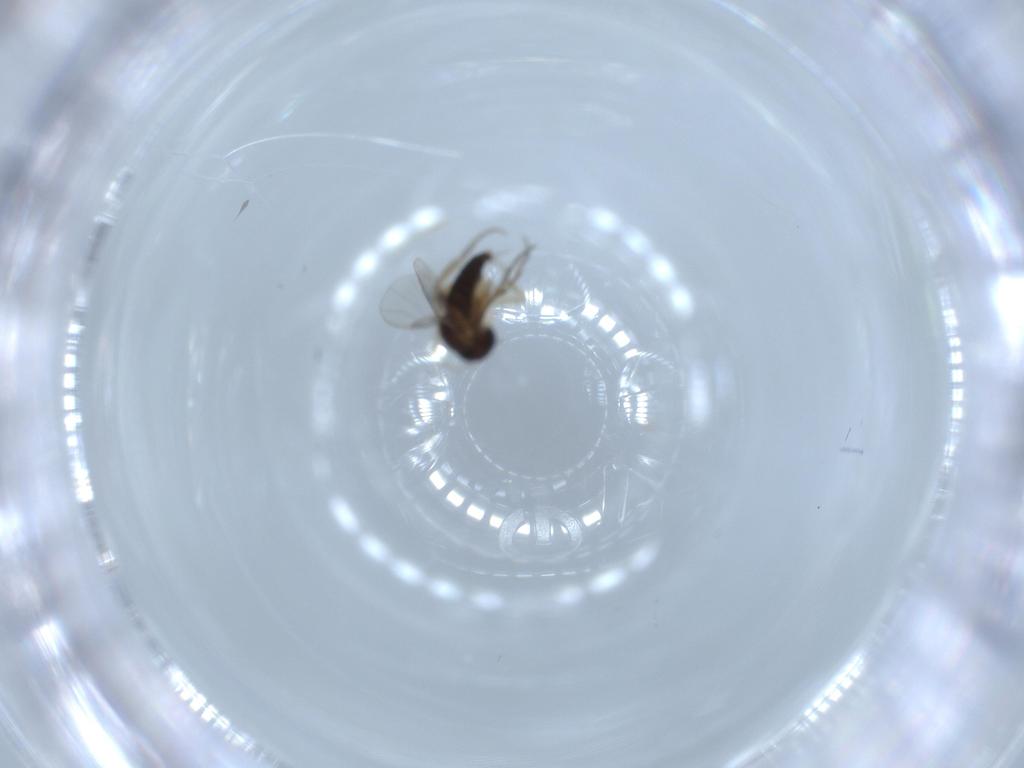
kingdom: Animalia
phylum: Arthropoda
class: Insecta
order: Diptera
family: Phoridae
